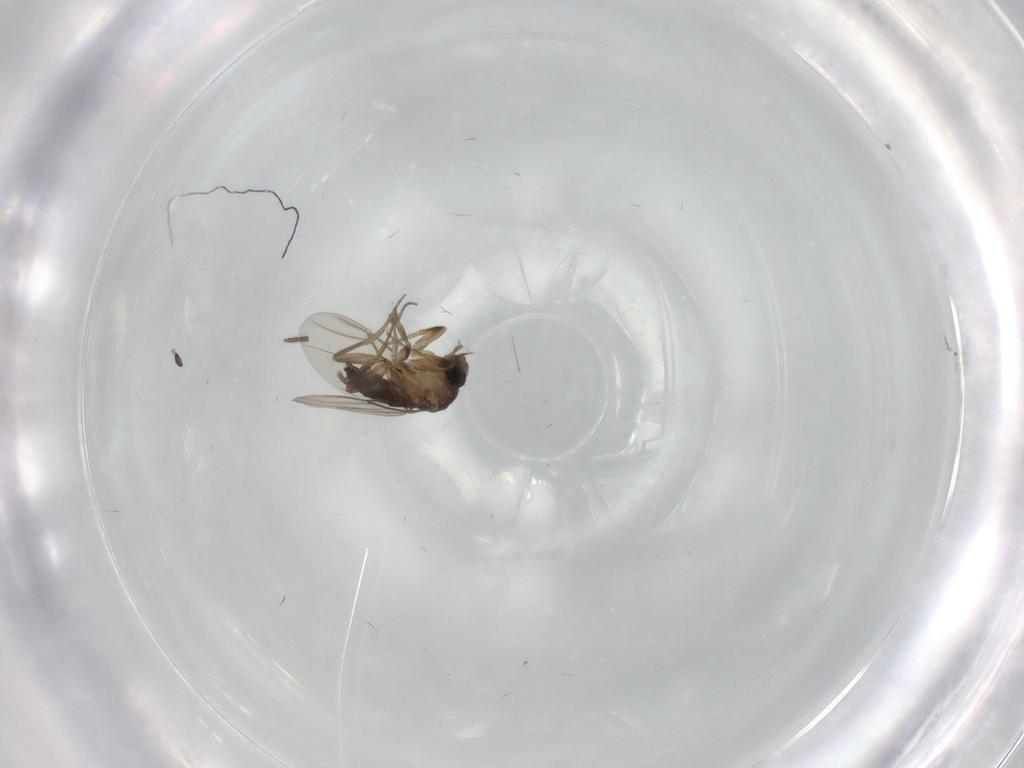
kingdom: Animalia
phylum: Arthropoda
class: Insecta
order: Diptera
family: Phoridae
